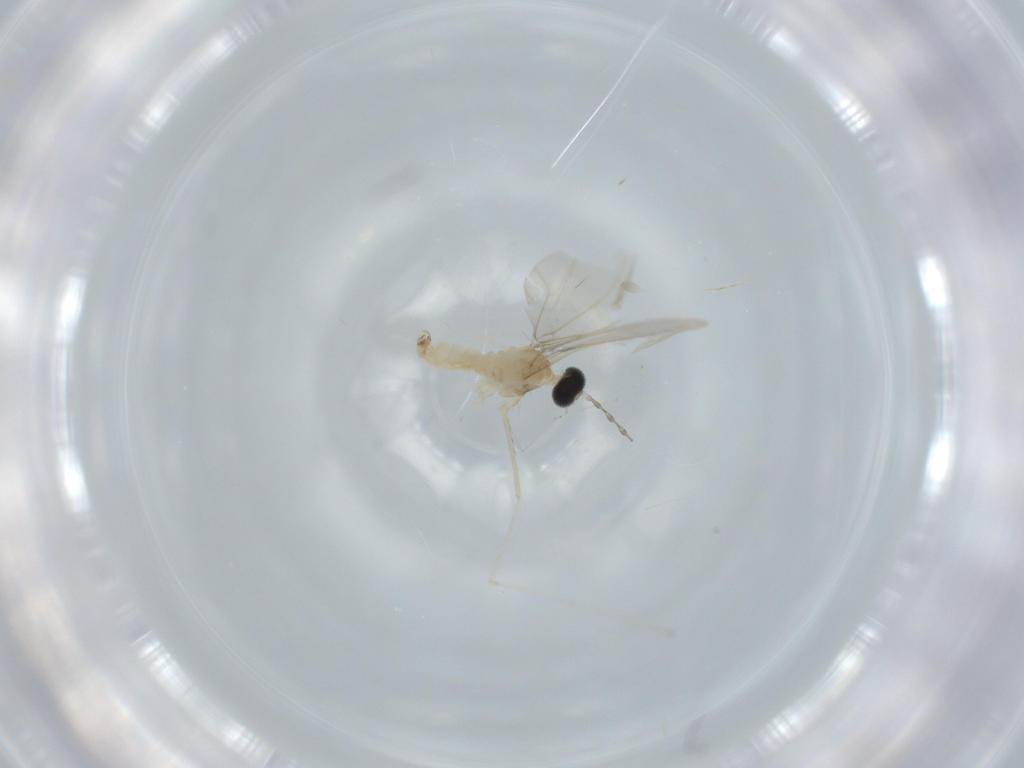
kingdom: Animalia
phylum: Arthropoda
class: Insecta
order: Diptera
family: Cecidomyiidae
